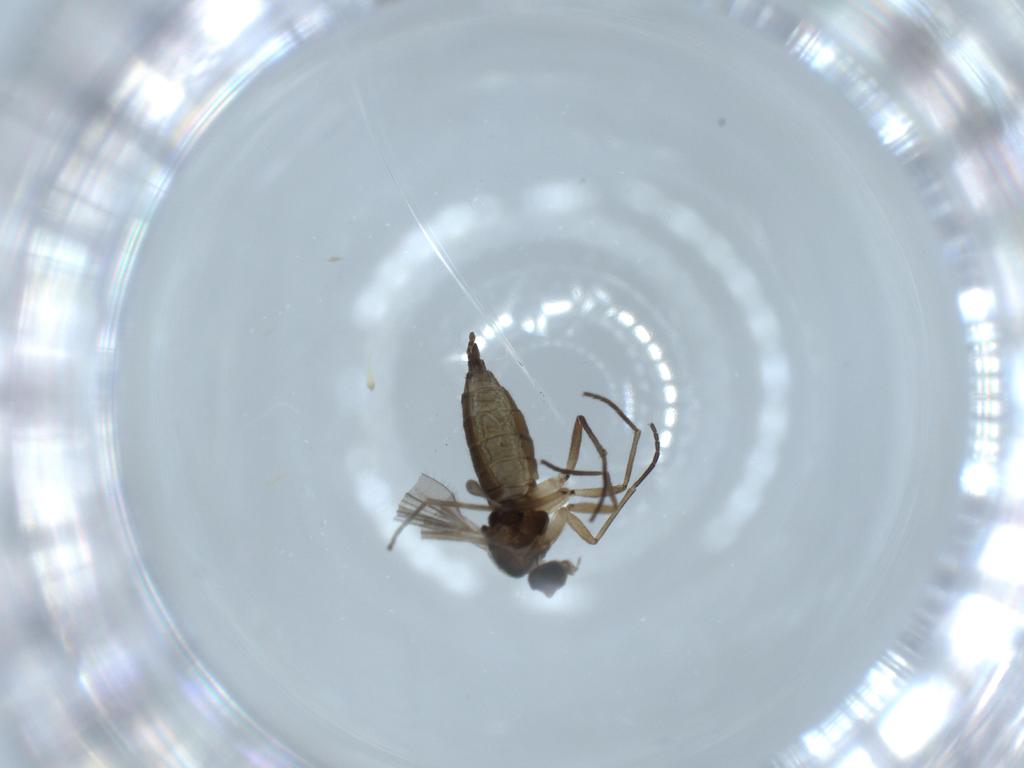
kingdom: Animalia
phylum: Arthropoda
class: Insecta
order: Diptera
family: Sciaridae
